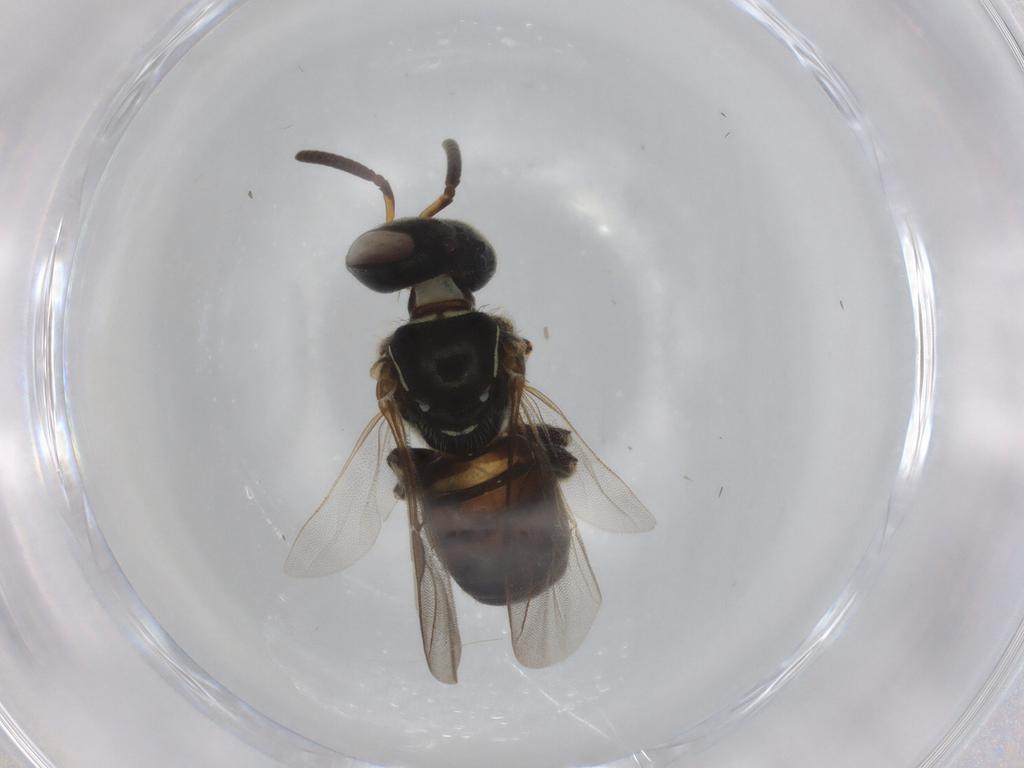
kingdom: Animalia
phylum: Arthropoda
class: Insecta
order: Hymenoptera
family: Apidae
